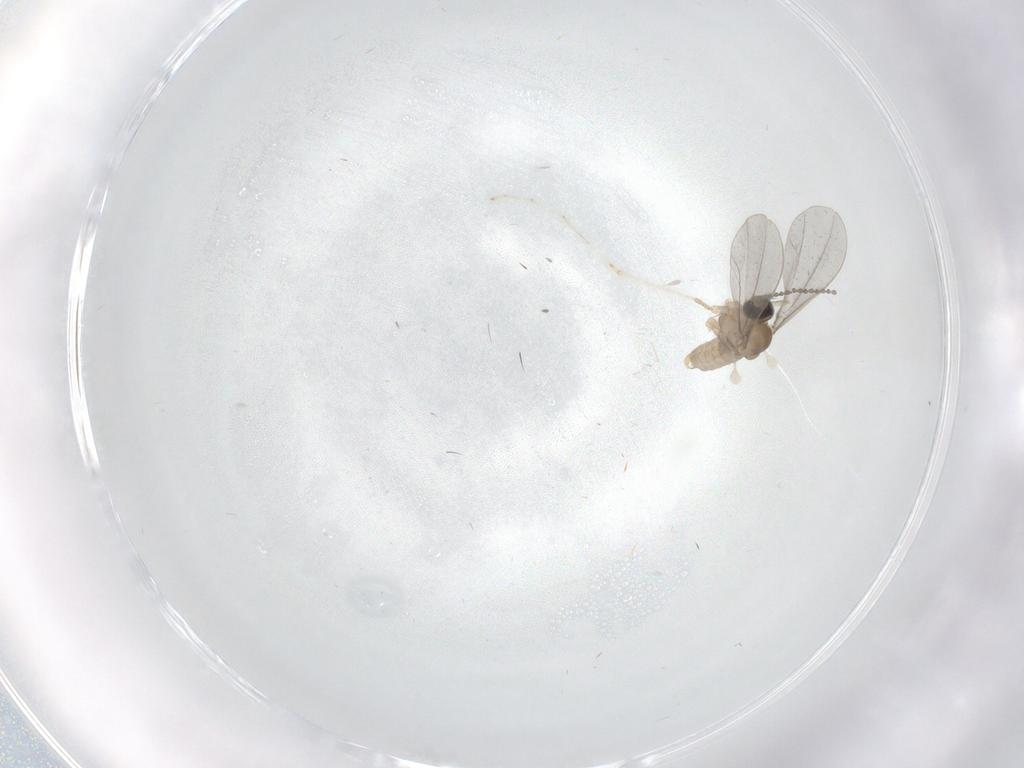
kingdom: Animalia
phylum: Arthropoda
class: Insecta
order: Diptera
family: Psychodidae
